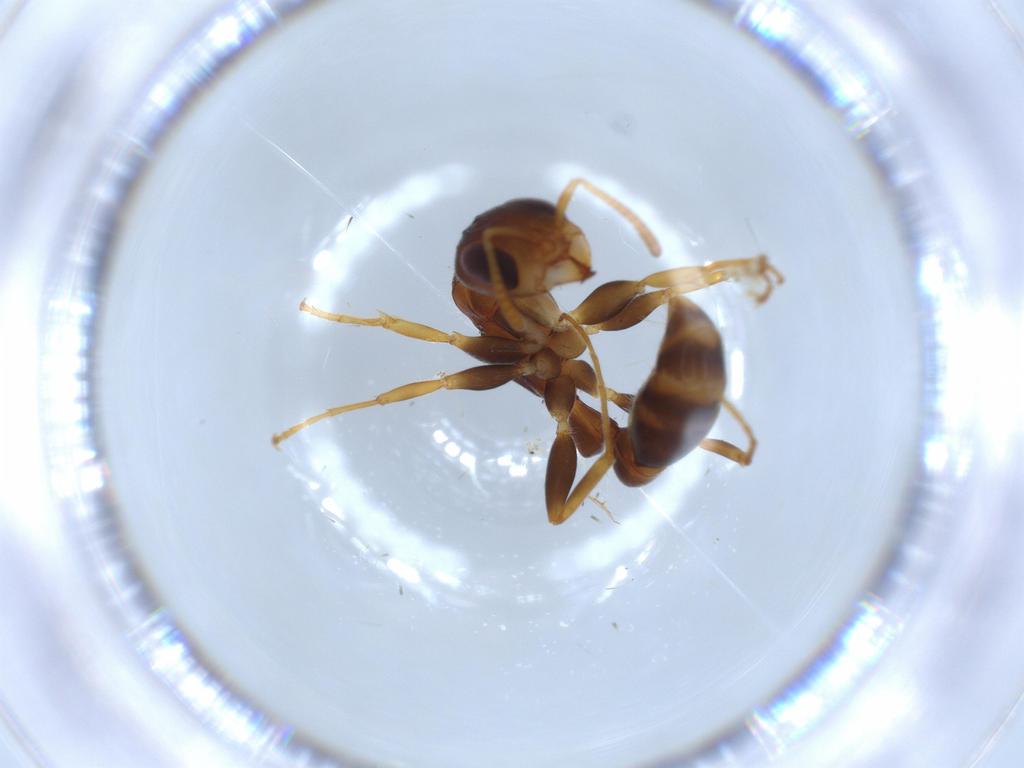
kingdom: Animalia
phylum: Arthropoda
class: Insecta
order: Hymenoptera
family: Formicidae
